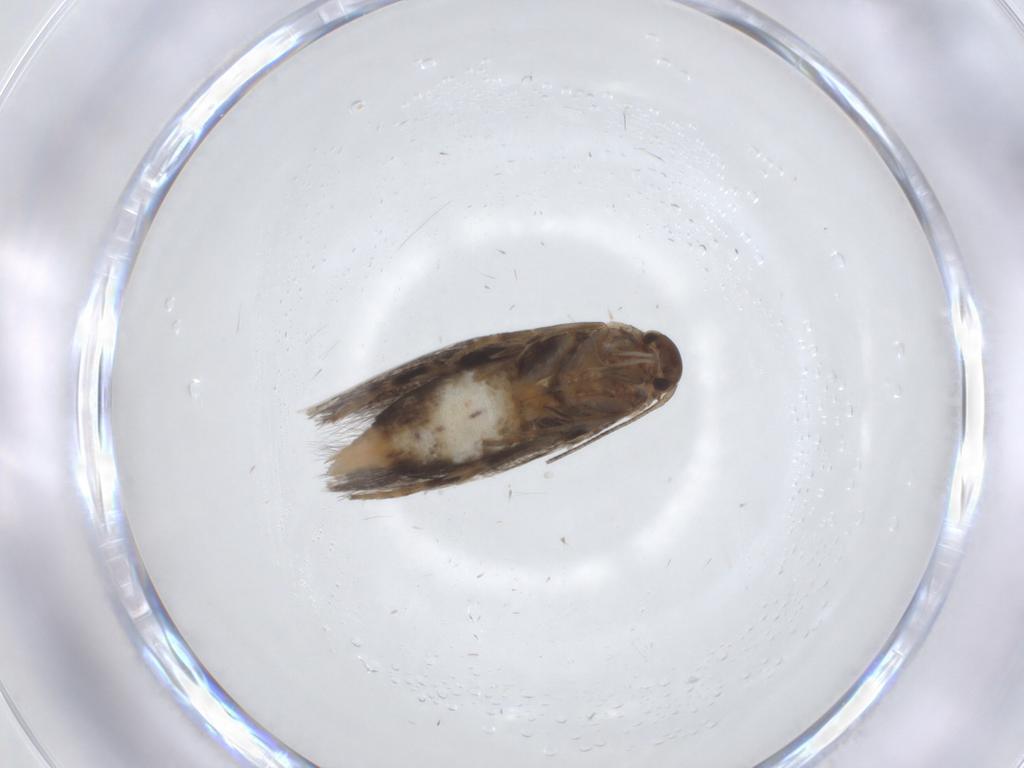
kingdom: Animalia
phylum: Arthropoda
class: Insecta
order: Lepidoptera
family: Elachistidae
